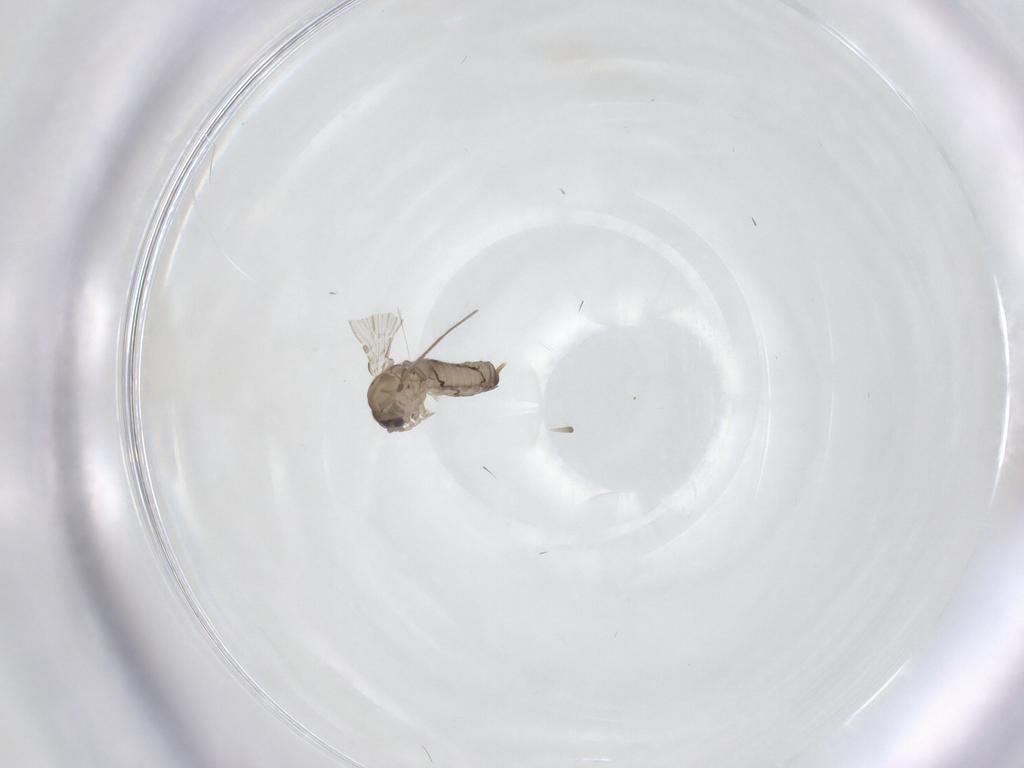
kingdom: Animalia
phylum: Arthropoda
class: Insecta
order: Diptera
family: Psychodidae
